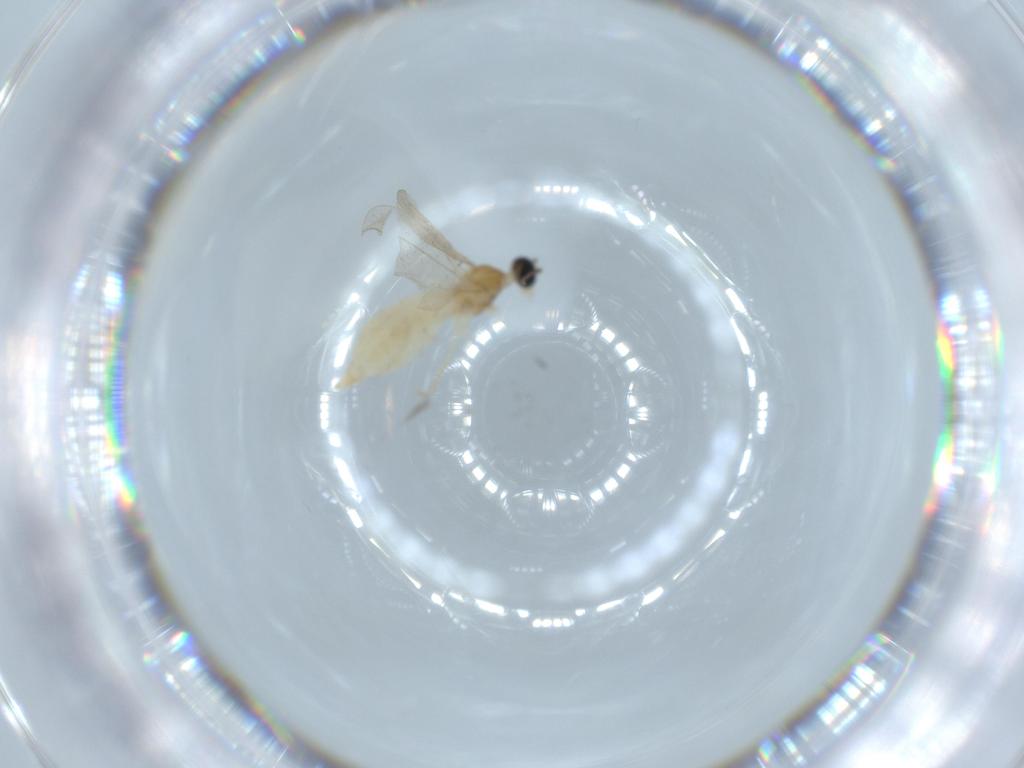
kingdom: Animalia
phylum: Arthropoda
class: Insecta
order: Diptera
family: Cecidomyiidae
